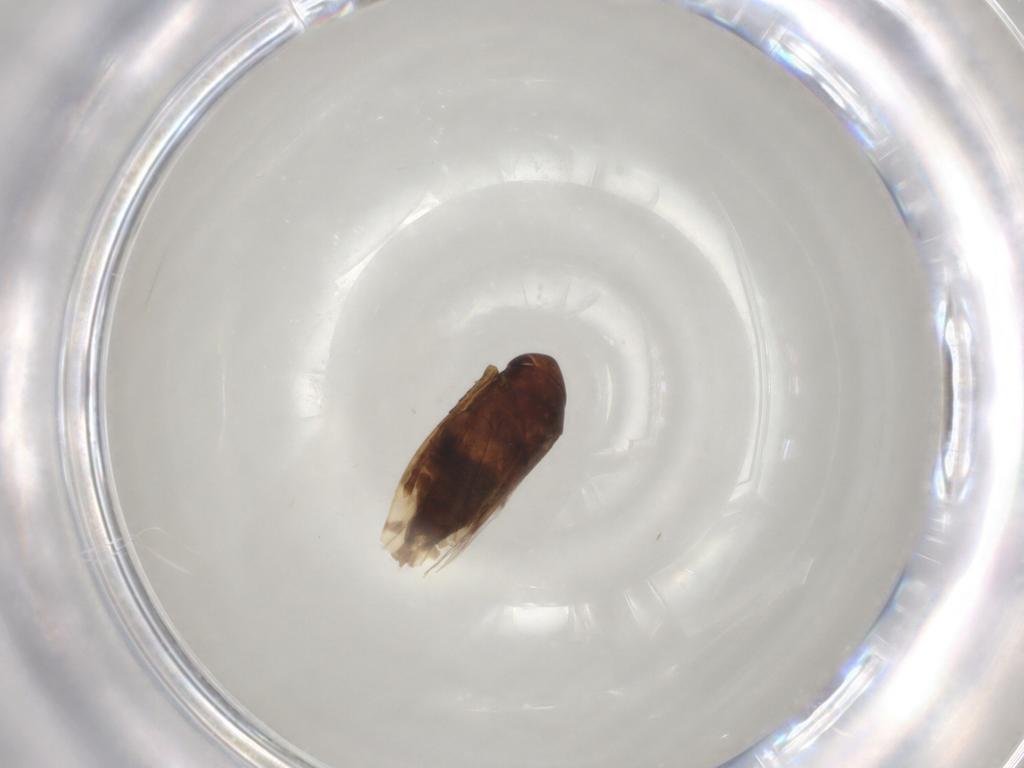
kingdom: Animalia
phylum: Arthropoda
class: Insecta
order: Hemiptera
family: Cicadellidae
